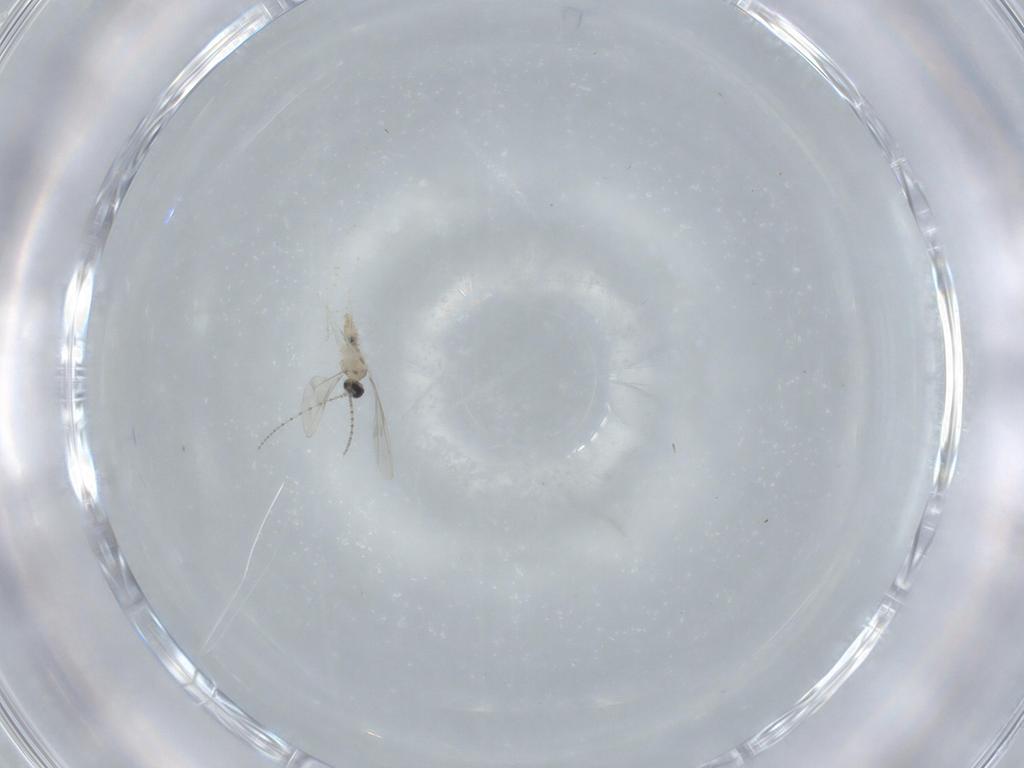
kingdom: Animalia
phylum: Arthropoda
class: Insecta
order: Diptera
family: Cecidomyiidae
